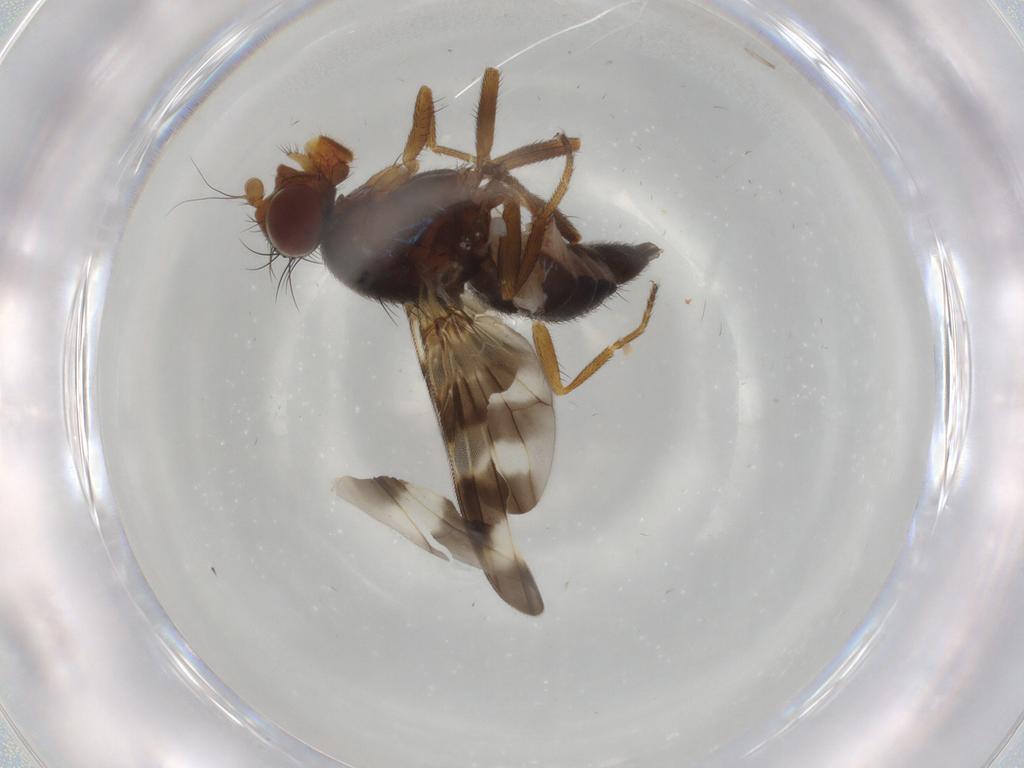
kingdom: Animalia
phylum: Arthropoda
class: Insecta
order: Diptera
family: Ulidiidae
